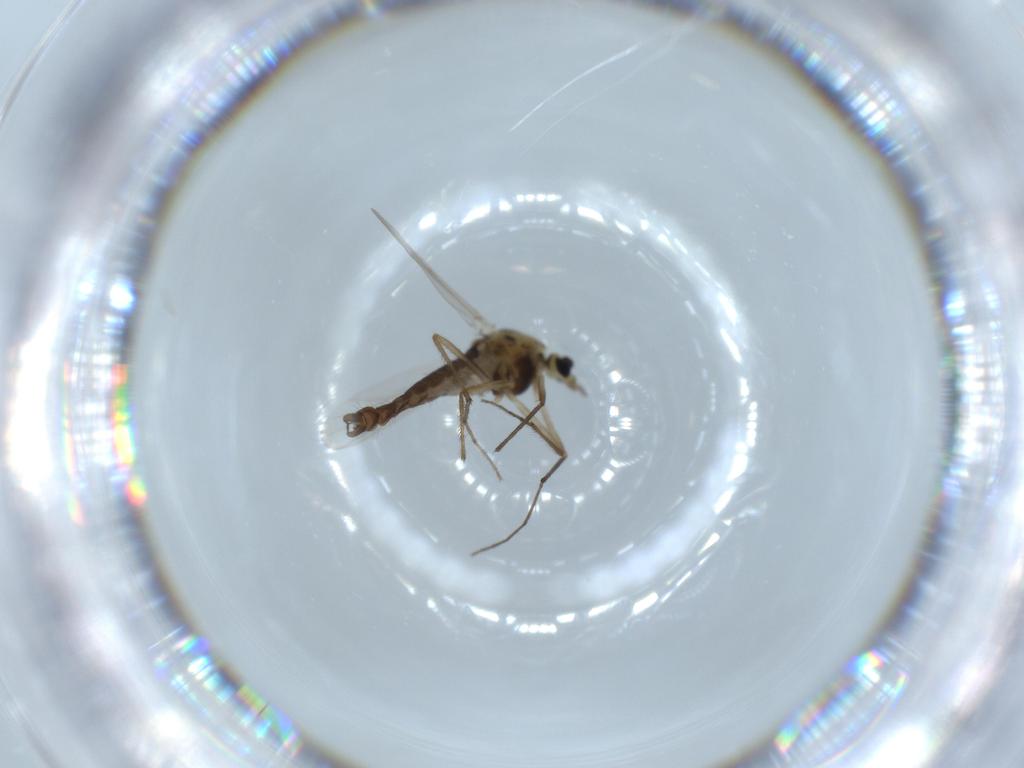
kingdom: Animalia
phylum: Arthropoda
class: Insecta
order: Diptera
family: Chironomidae
